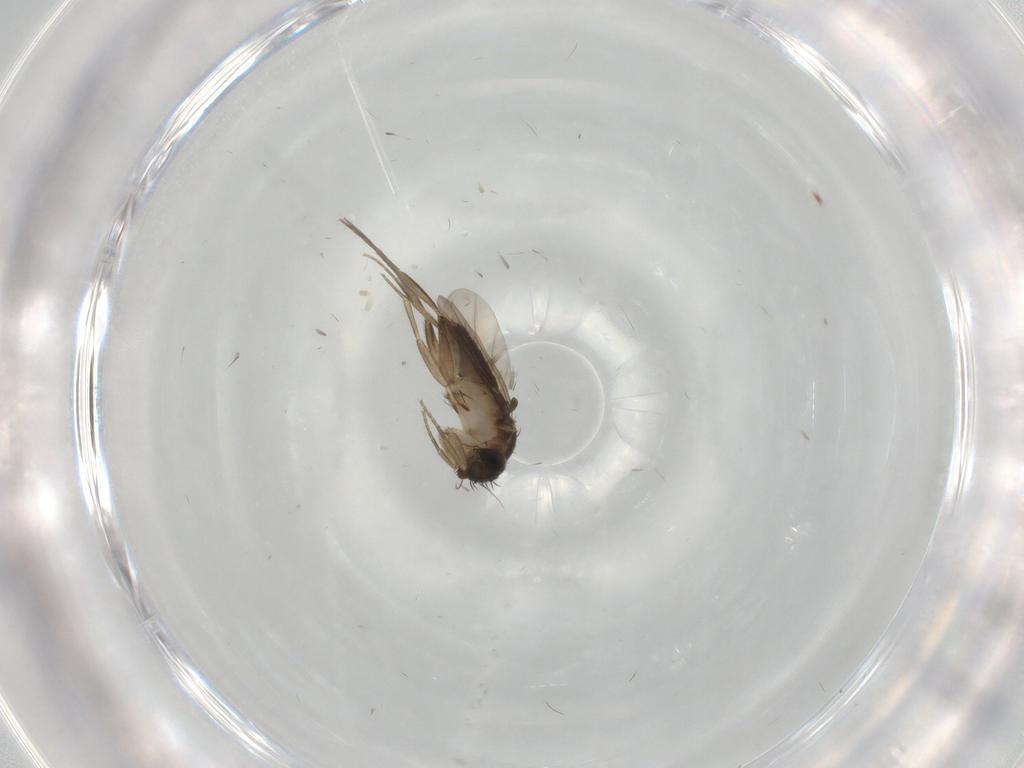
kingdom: Animalia
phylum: Arthropoda
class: Insecta
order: Diptera
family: Phoridae
